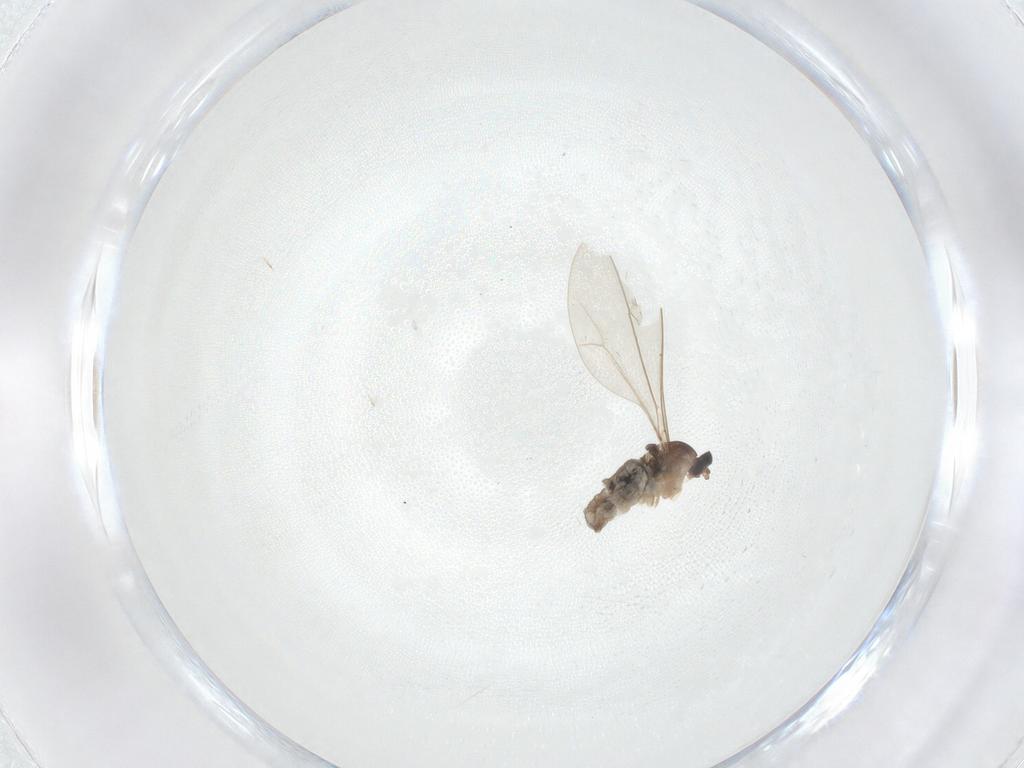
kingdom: Animalia
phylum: Arthropoda
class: Insecta
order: Diptera
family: Cecidomyiidae
